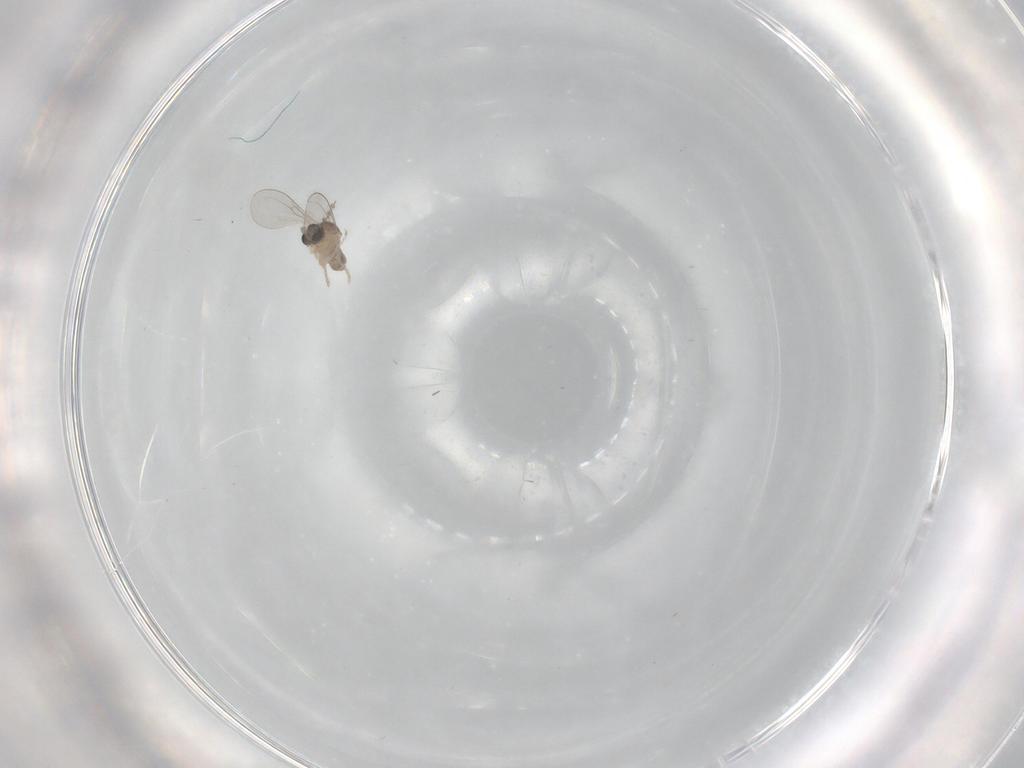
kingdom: Animalia
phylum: Arthropoda
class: Insecta
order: Diptera
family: Cecidomyiidae
